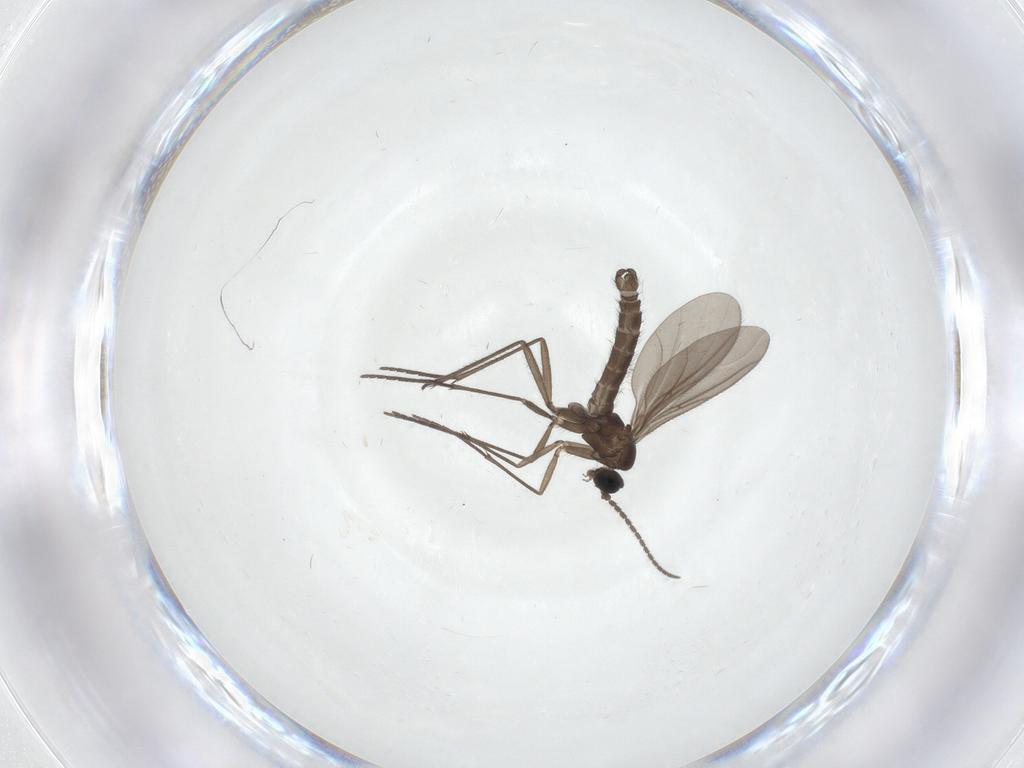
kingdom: Animalia
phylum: Arthropoda
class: Insecta
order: Diptera
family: Sciaridae
